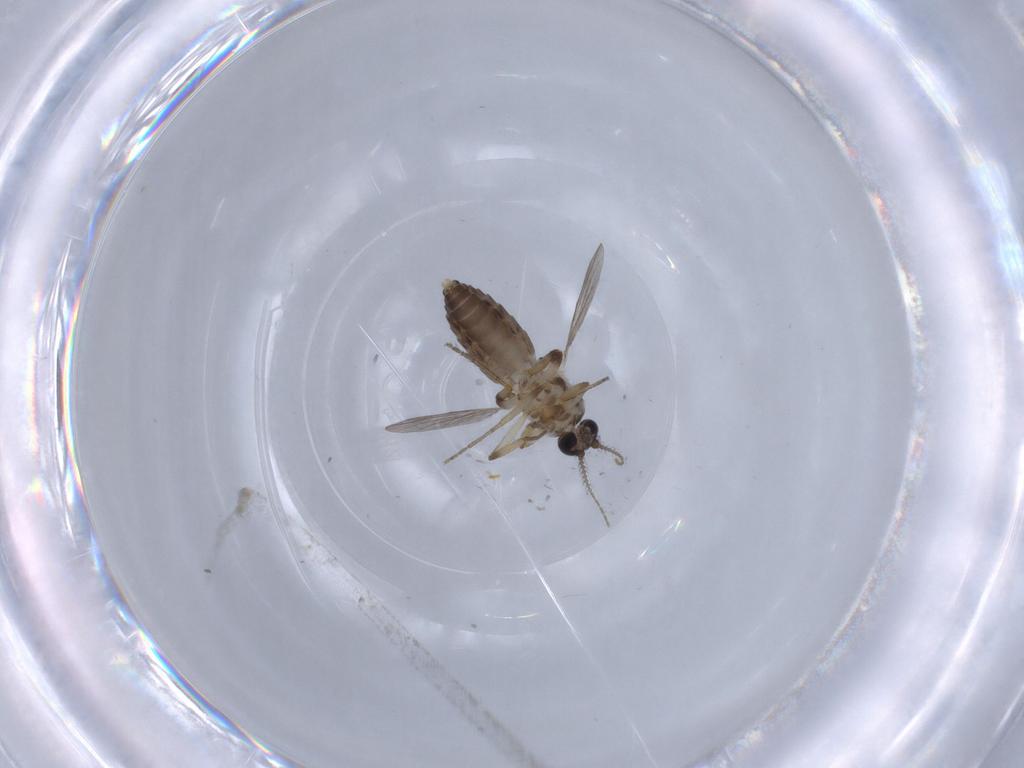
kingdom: Animalia
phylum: Arthropoda
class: Insecta
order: Diptera
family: Ceratopogonidae
